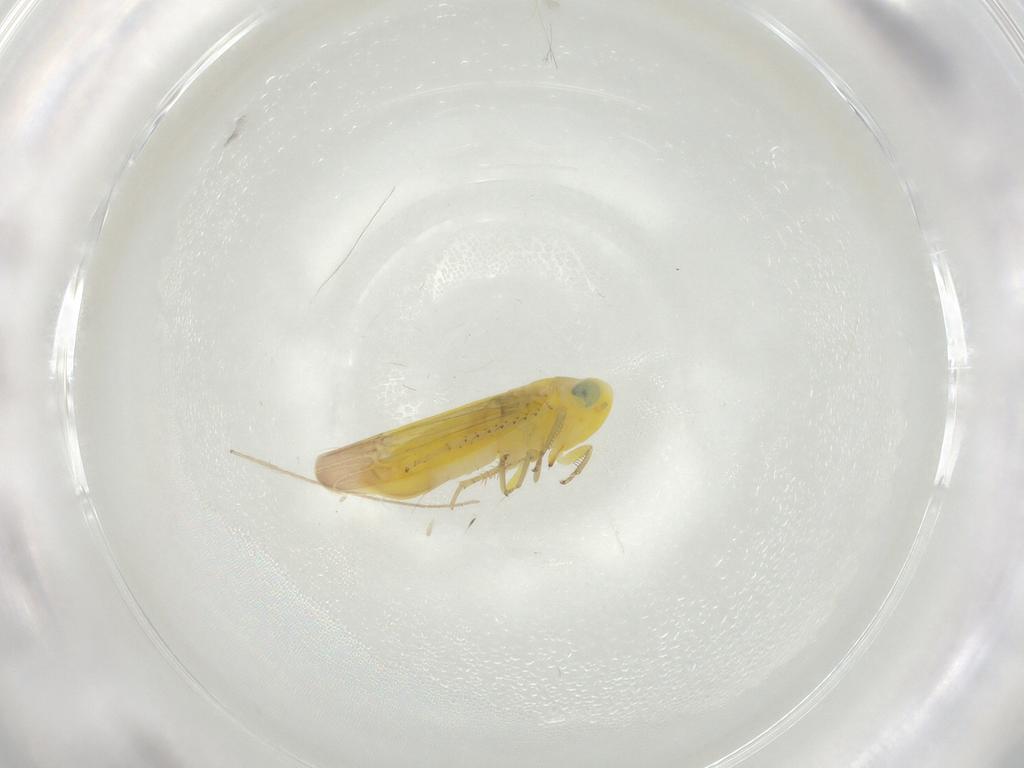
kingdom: Animalia
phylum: Arthropoda
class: Insecta
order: Hemiptera
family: Cicadellidae
